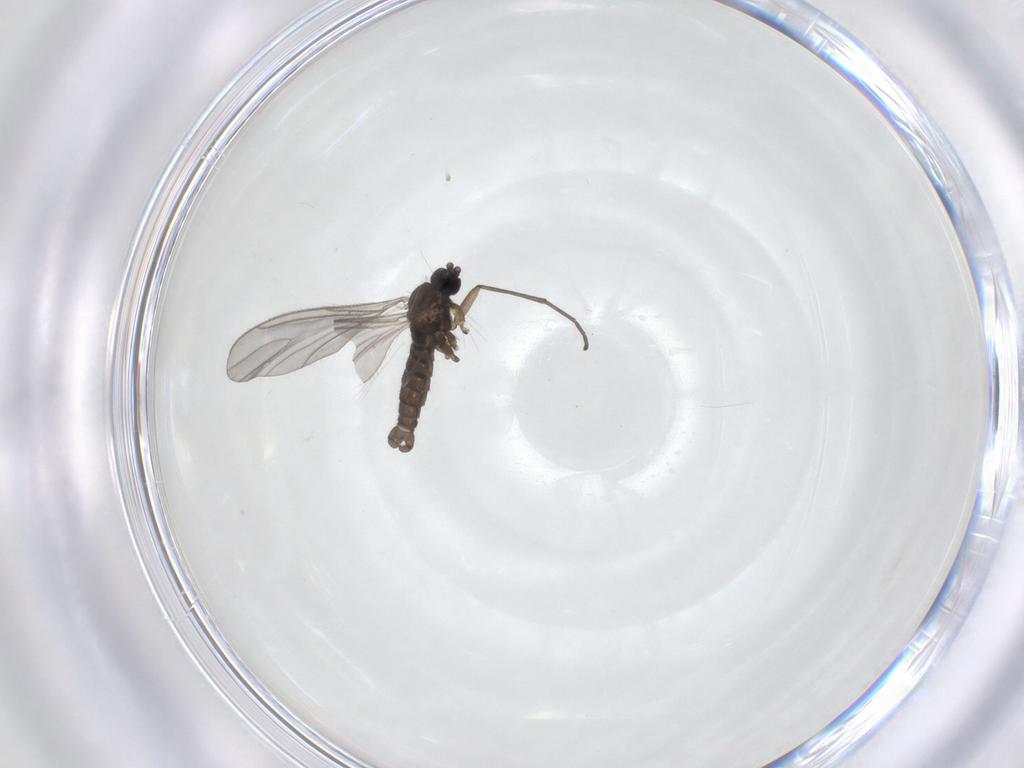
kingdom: Animalia
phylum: Arthropoda
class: Insecta
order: Diptera
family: Sciaridae
